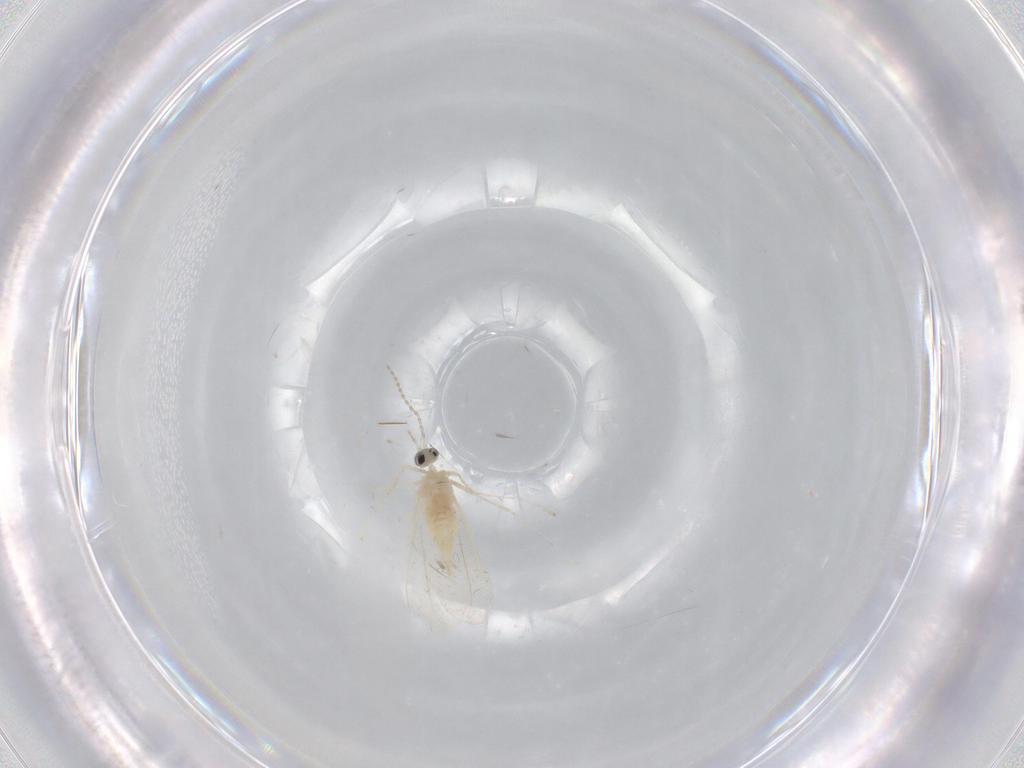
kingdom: Animalia
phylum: Arthropoda
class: Insecta
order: Diptera
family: Cecidomyiidae
